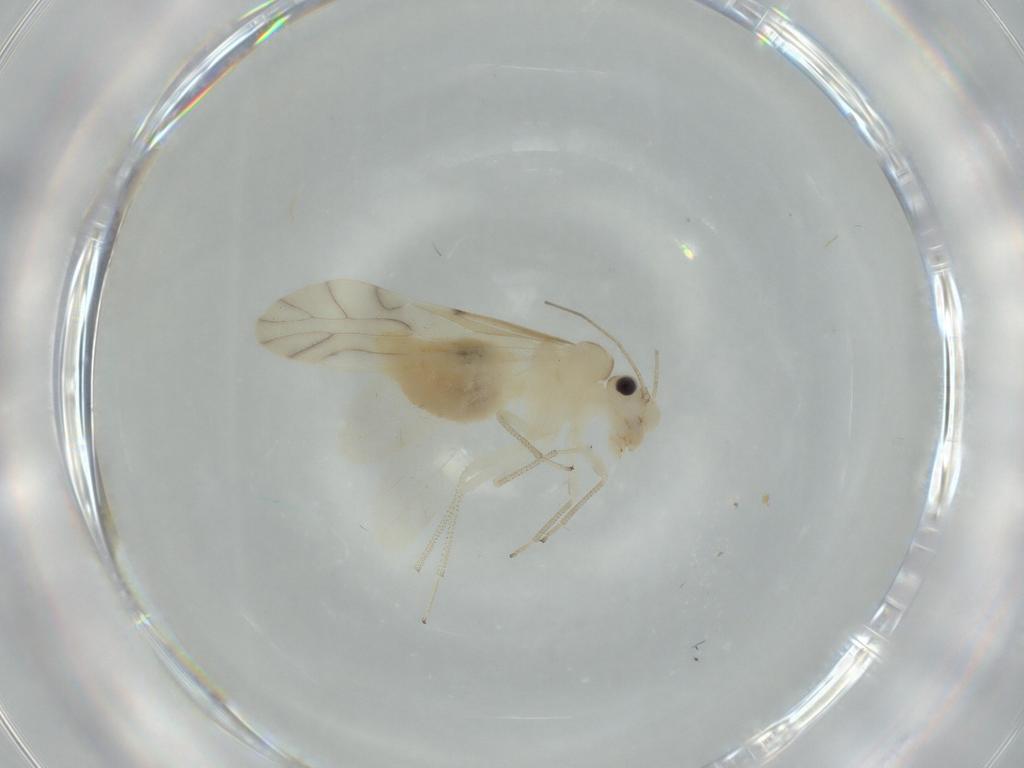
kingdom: Animalia
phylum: Arthropoda
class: Insecta
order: Psocodea
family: Caeciliusidae
